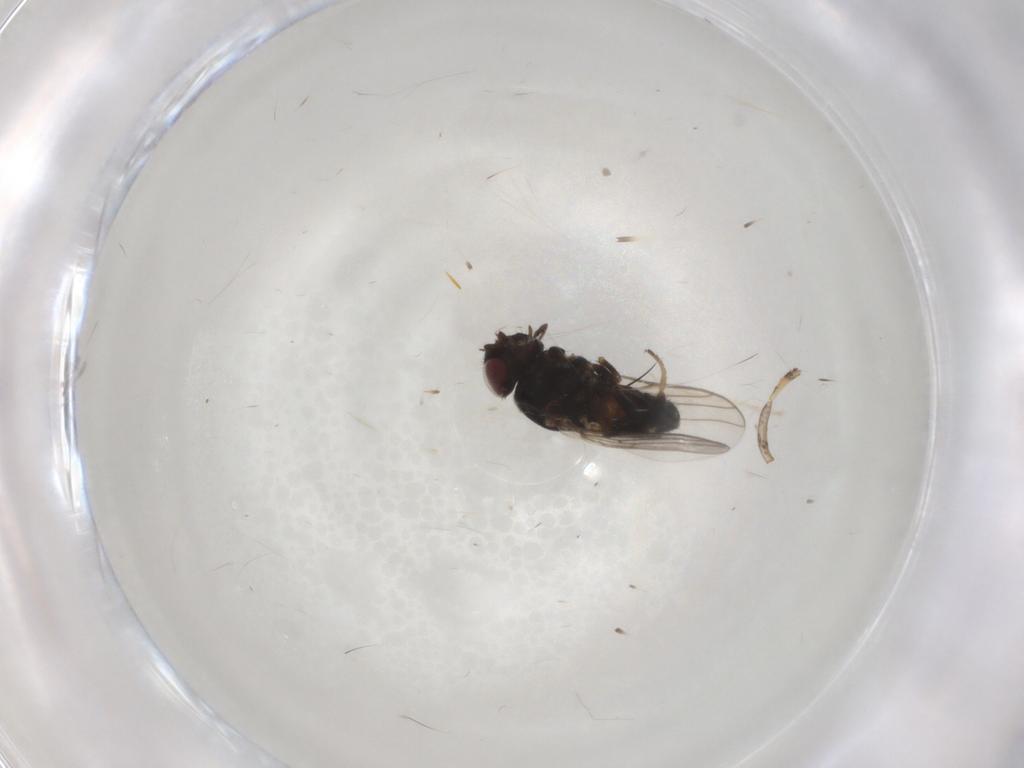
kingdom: Animalia
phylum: Arthropoda
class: Insecta
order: Diptera
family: Chloropidae
